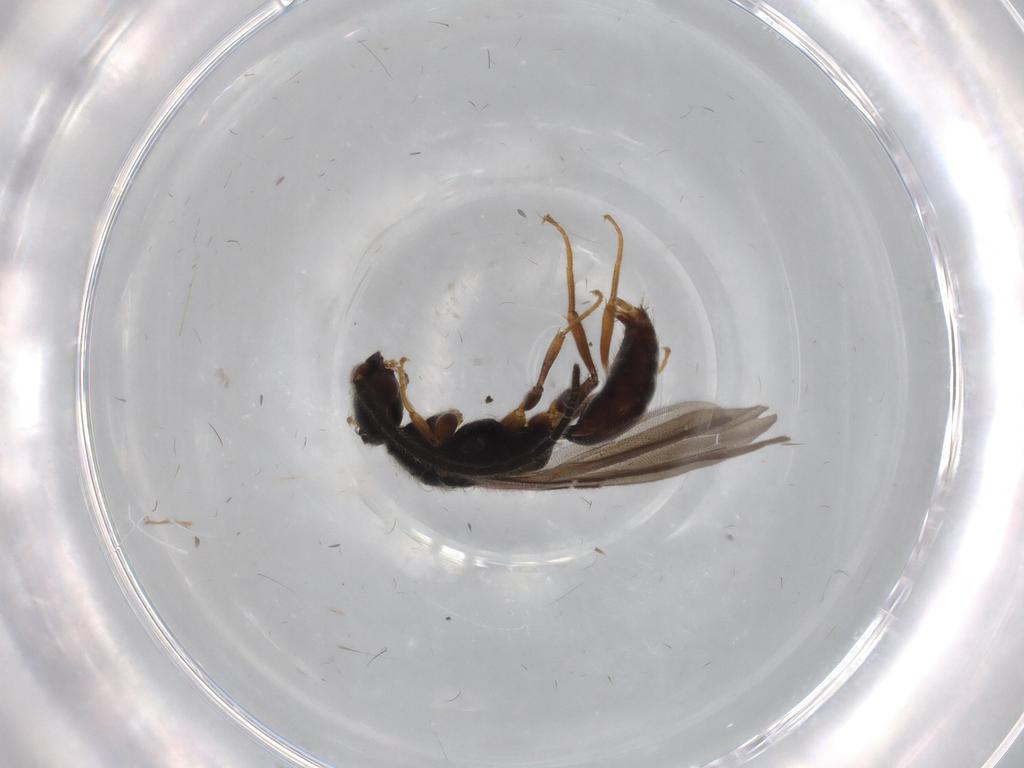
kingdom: Animalia
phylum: Arthropoda
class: Insecta
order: Hymenoptera
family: Bethylidae
